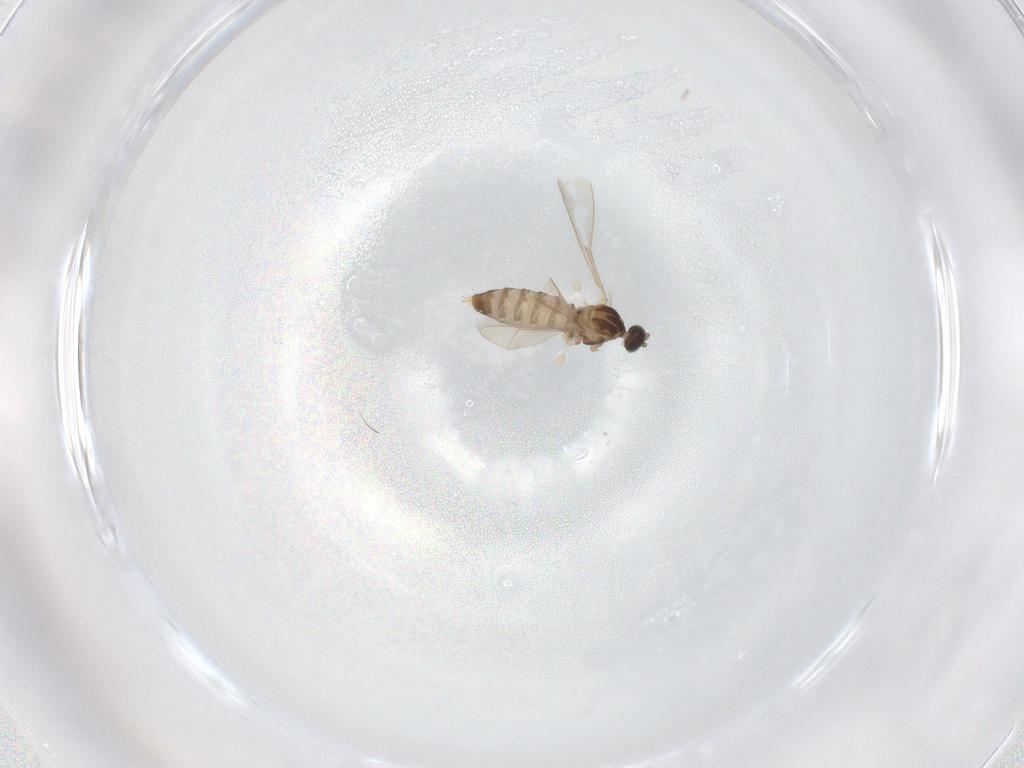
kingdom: Animalia
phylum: Arthropoda
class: Insecta
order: Diptera
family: Cecidomyiidae
